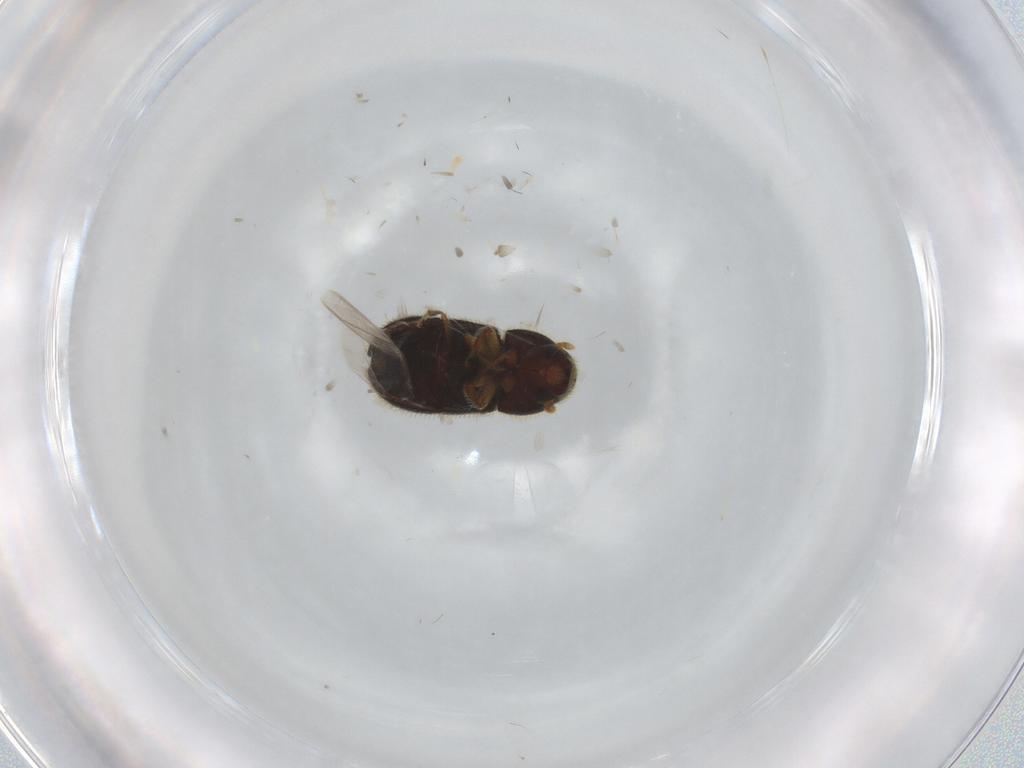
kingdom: Animalia
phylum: Arthropoda
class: Insecta
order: Coleoptera
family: Curculionidae
